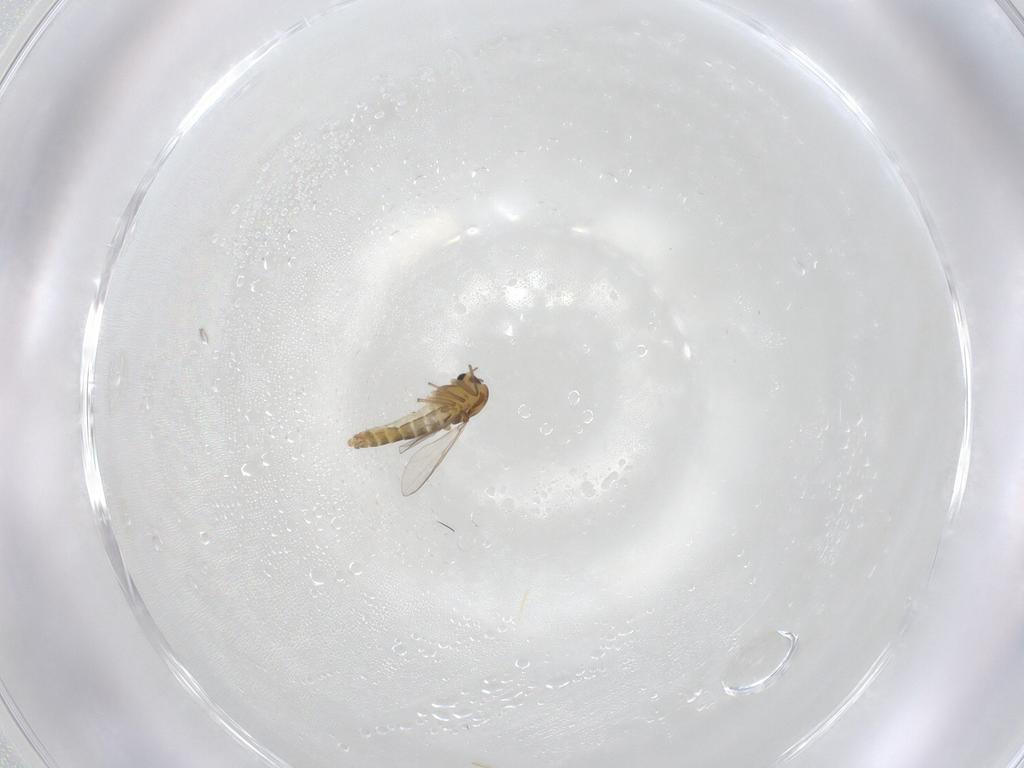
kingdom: Animalia
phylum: Arthropoda
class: Insecta
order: Diptera
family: Chironomidae
